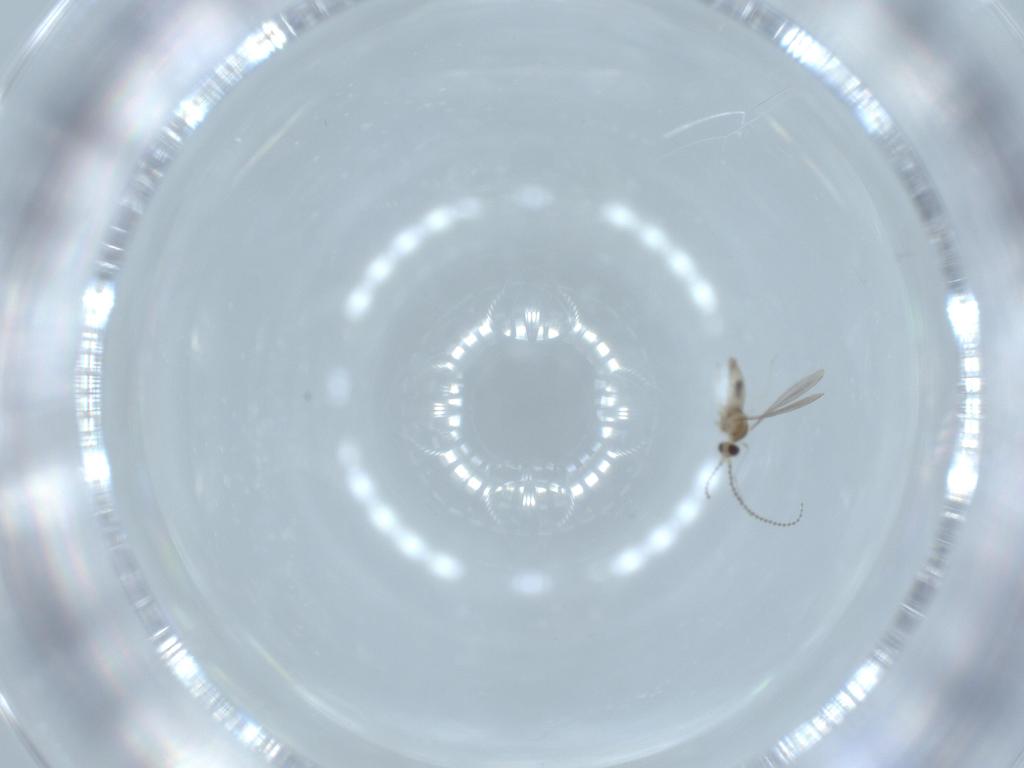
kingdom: Animalia
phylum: Arthropoda
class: Insecta
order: Diptera
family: Cecidomyiidae
